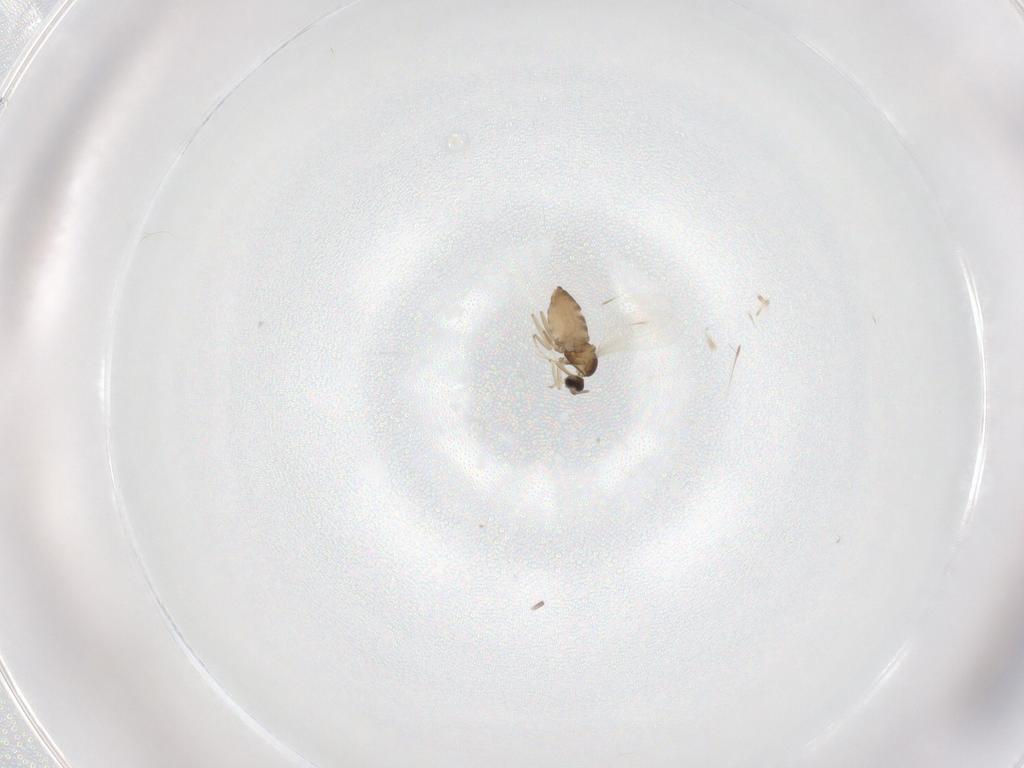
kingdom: Animalia
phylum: Arthropoda
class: Insecta
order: Diptera
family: Cecidomyiidae
